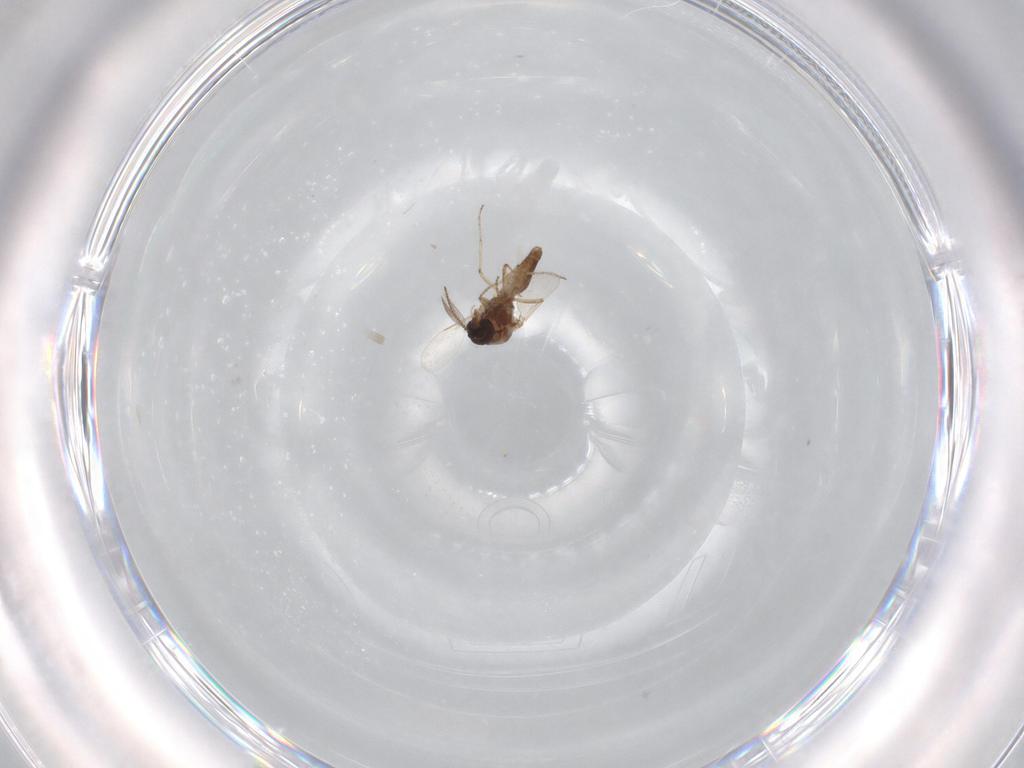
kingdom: Animalia
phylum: Arthropoda
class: Insecta
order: Diptera
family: Ceratopogonidae
